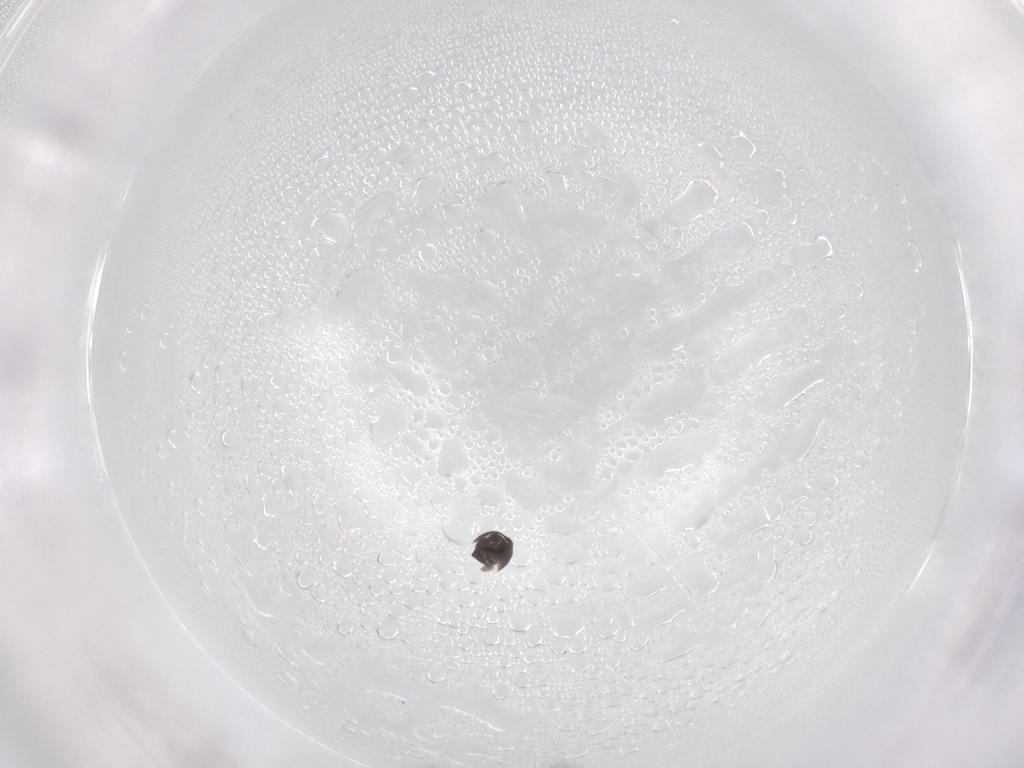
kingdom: Animalia
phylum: Arthropoda
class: Insecta
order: Hymenoptera
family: Scelionidae
